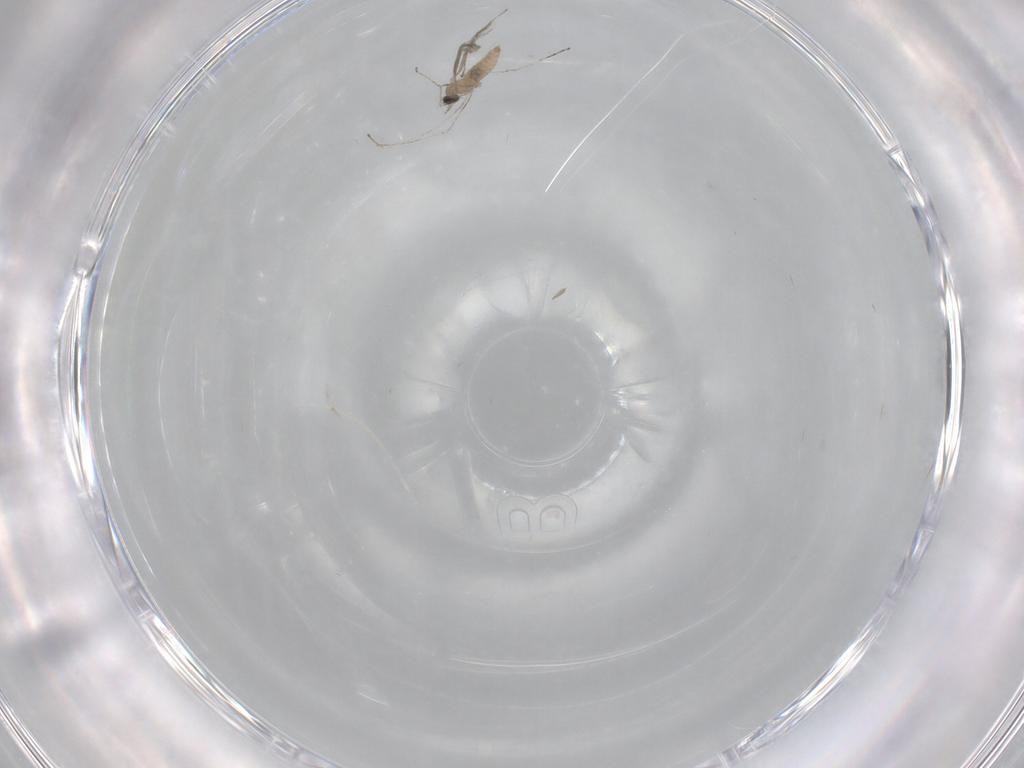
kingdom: Animalia
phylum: Arthropoda
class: Insecta
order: Diptera
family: Cecidomyiidae
